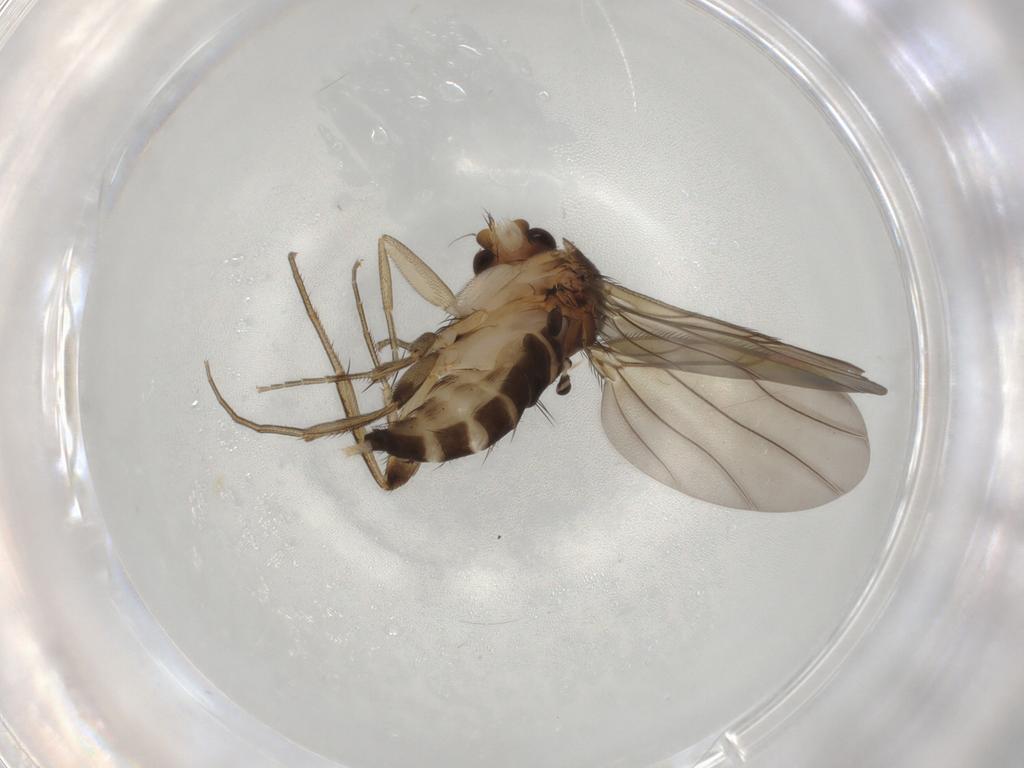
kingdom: Animalia
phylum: Arthropoda
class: Insecta
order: Diptera
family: Phoridae
